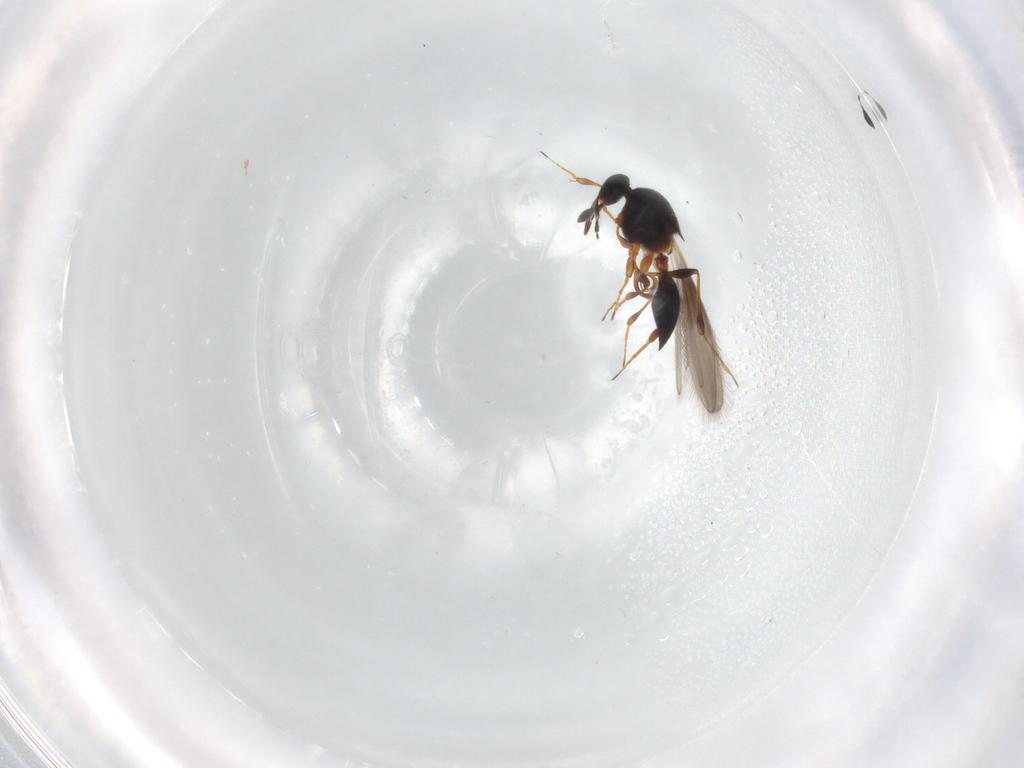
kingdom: Animalia
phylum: Arthropoda
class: Insecta
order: Hymenoptera
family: Platygastridae
